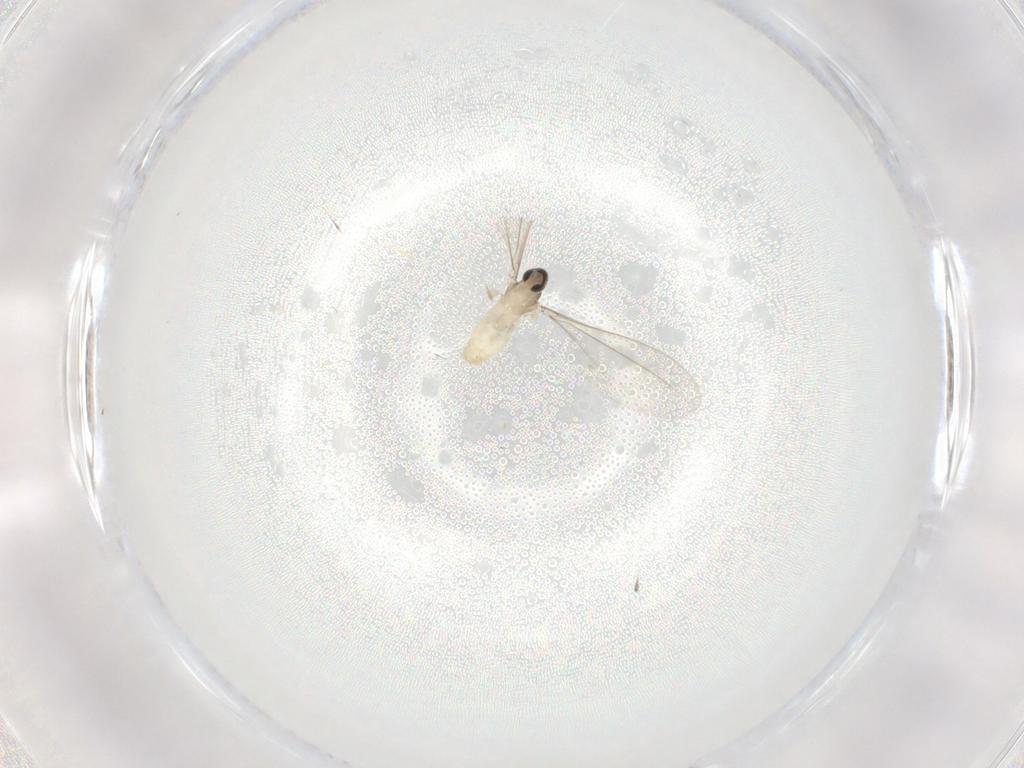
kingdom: Animalia
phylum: Arthropoda
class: Insecta
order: Diptera
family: Cecidomyiidae
